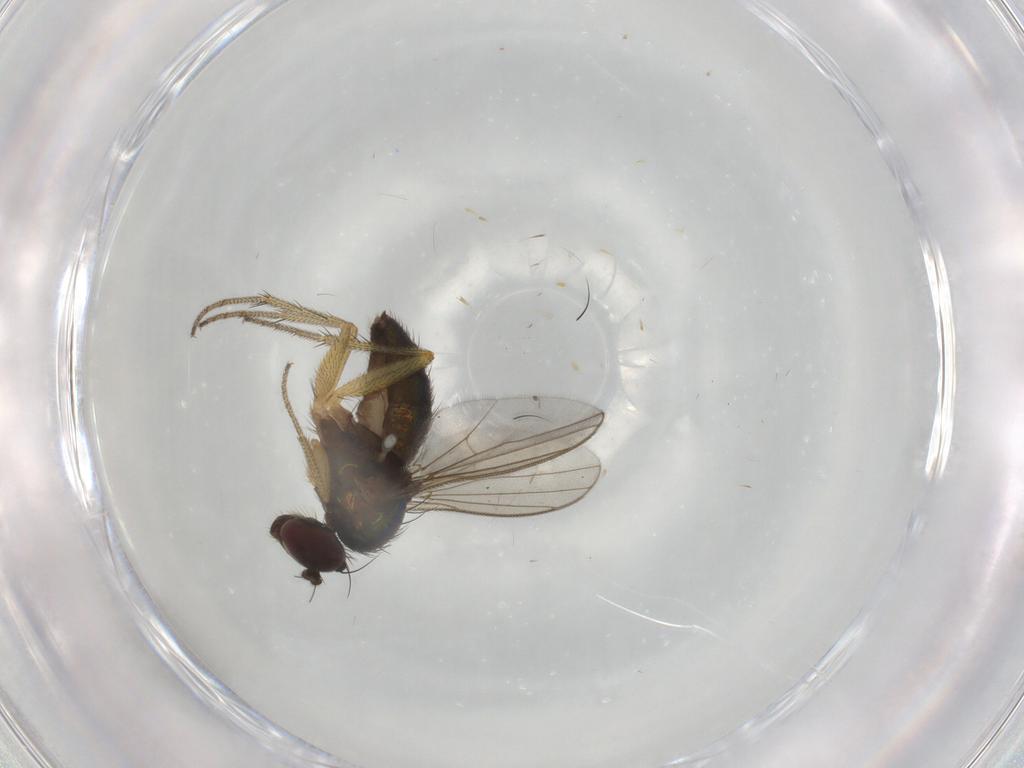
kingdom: Animalia
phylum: Arthropoda
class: Insecta
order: Diptera
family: Dolichopodidae
